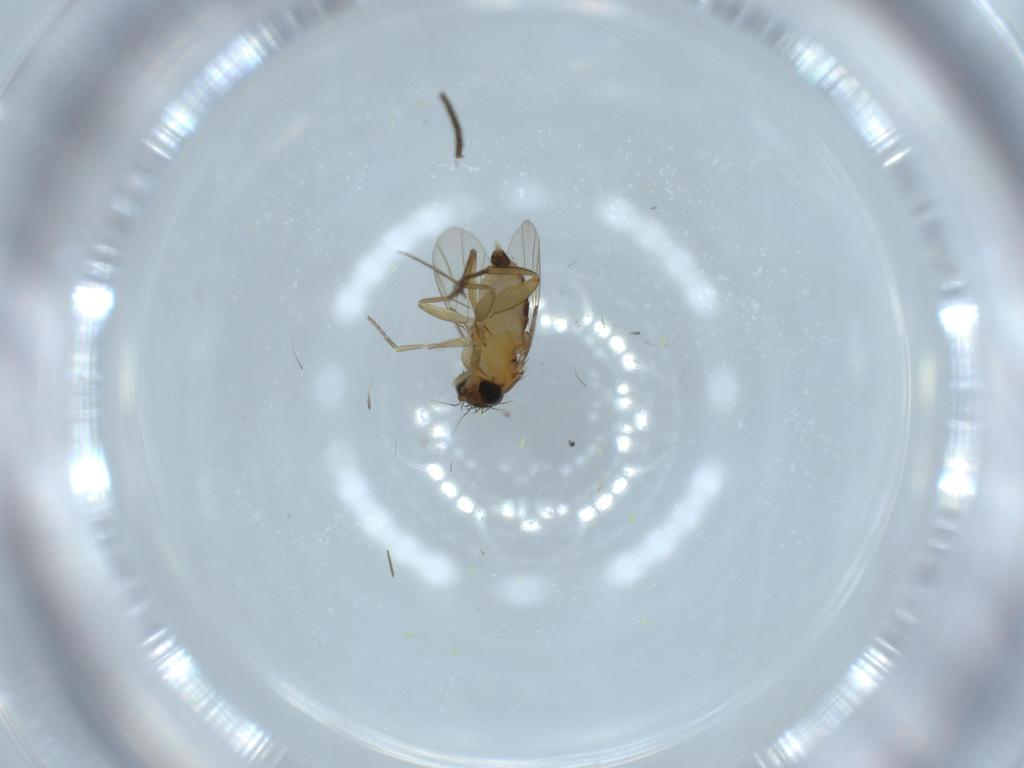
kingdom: Animalia
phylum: Arthropoda
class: Insecta
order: Diptera
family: Phoridae
